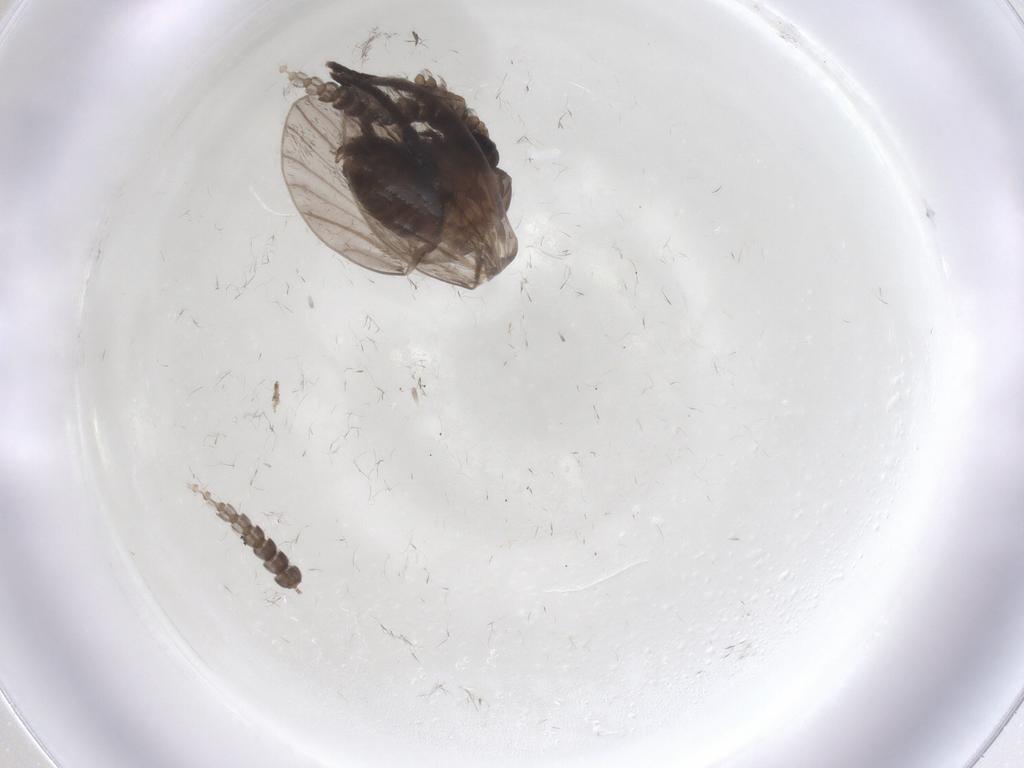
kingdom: Animalia
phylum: Arthropoda
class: Insecta
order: Diptera
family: Psychodidae
